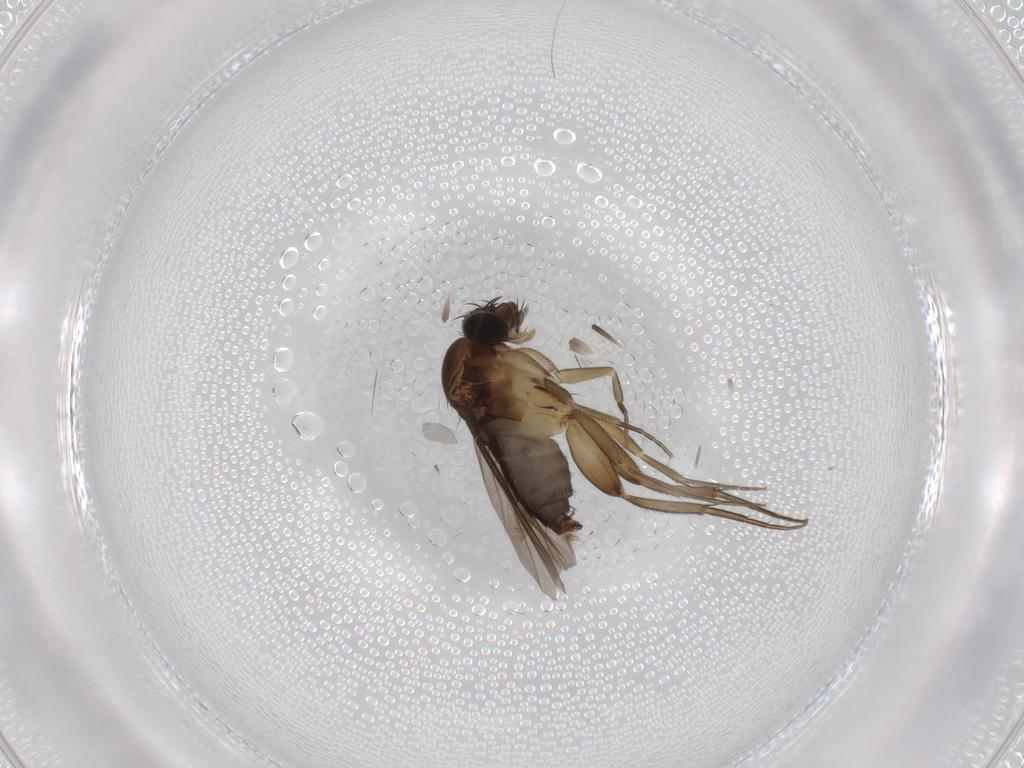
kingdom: Animalia
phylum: Arthropoda
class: Insecta
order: Diptera
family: Phoridae
